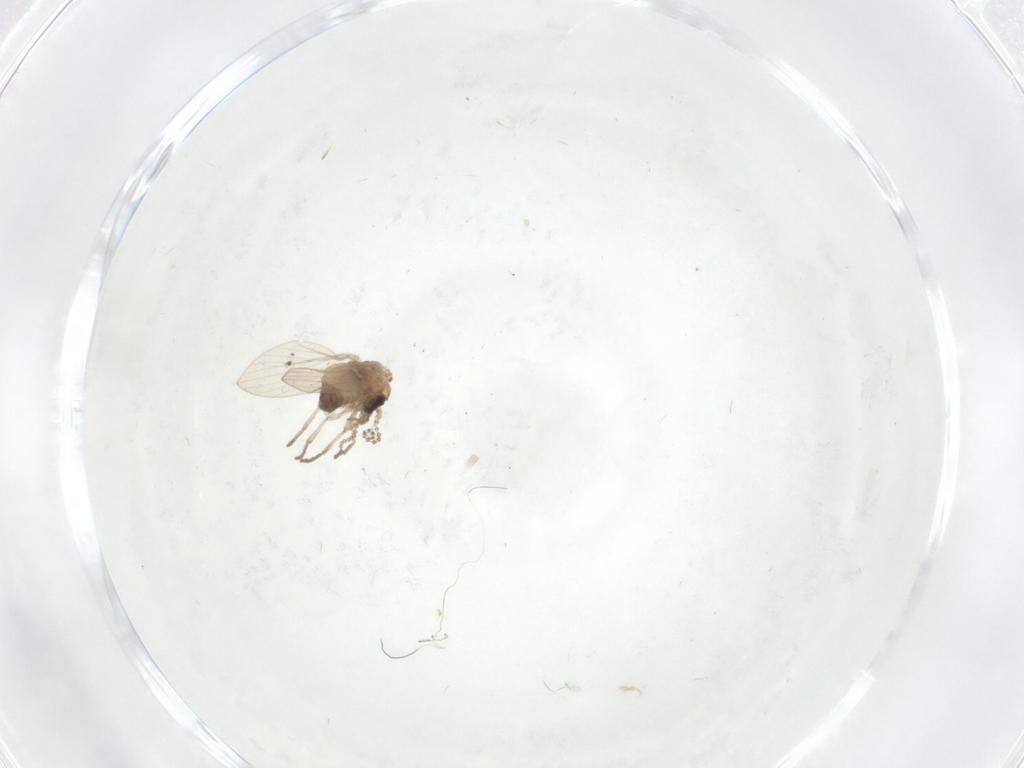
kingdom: Animalia
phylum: Arthropoda
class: Insecta
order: Diptera
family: Psychodidae
